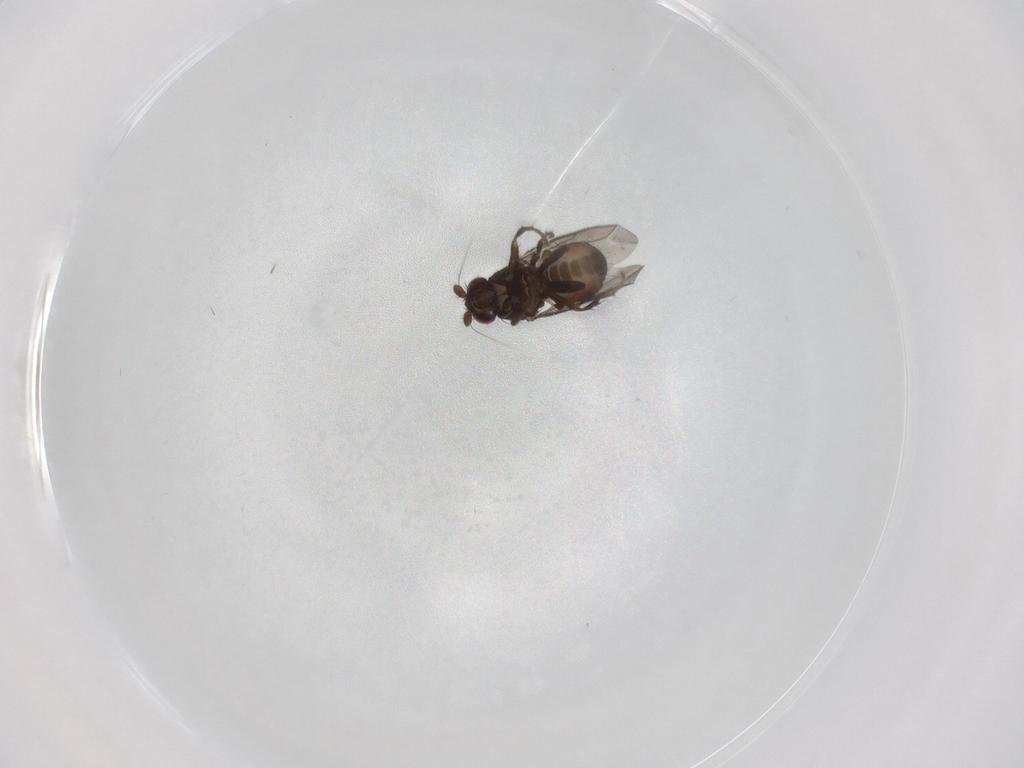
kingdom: Animalia
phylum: Arthropoda
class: Insecta
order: Diptera
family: Sphaeroceridae
